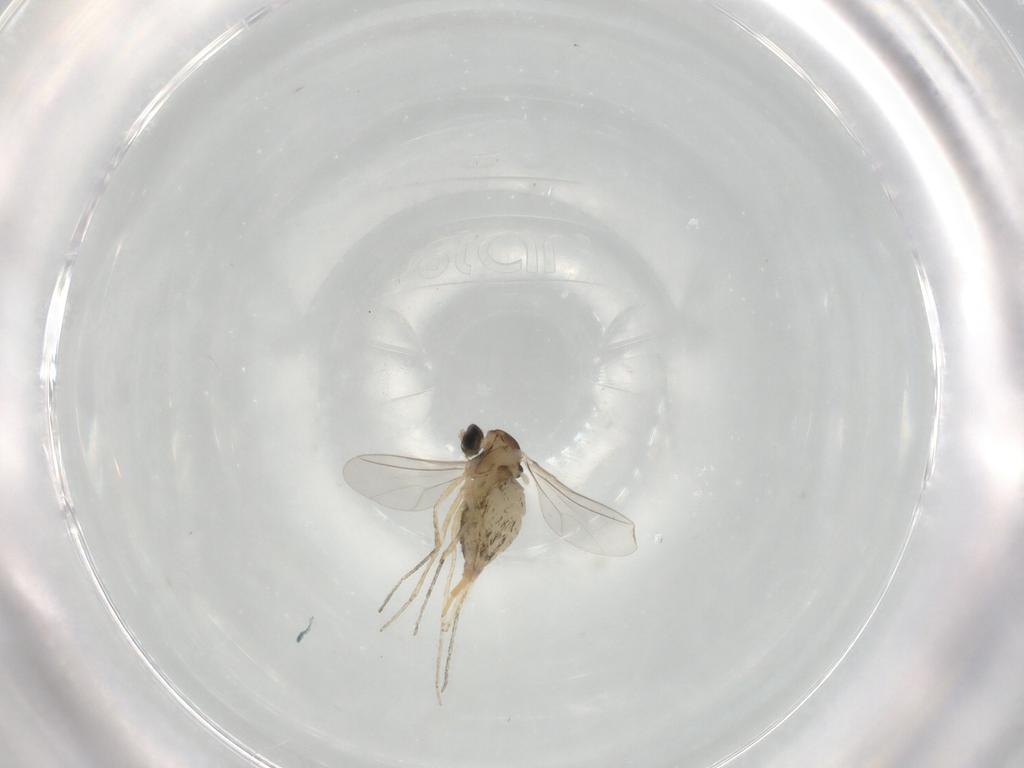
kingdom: Animalia
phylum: Arthropoda
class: Insecta
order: Diptera
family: Cecidomyiidae
